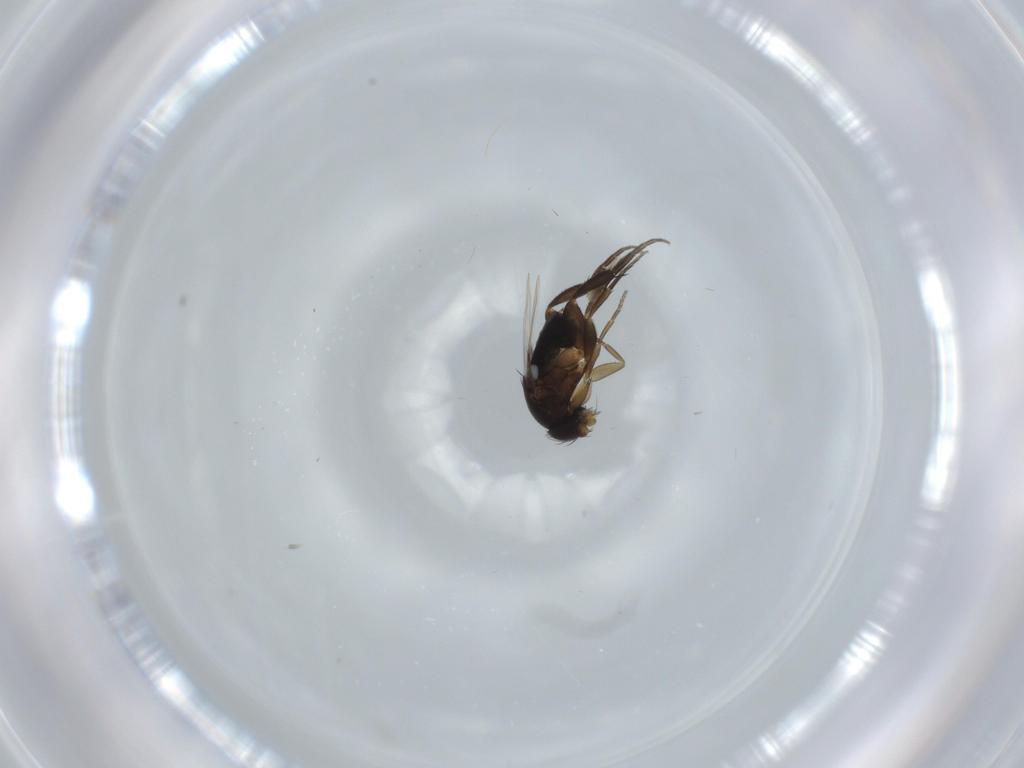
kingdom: Animalia
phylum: Arthropoda
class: Insecta
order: Diptera
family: Phoridae
